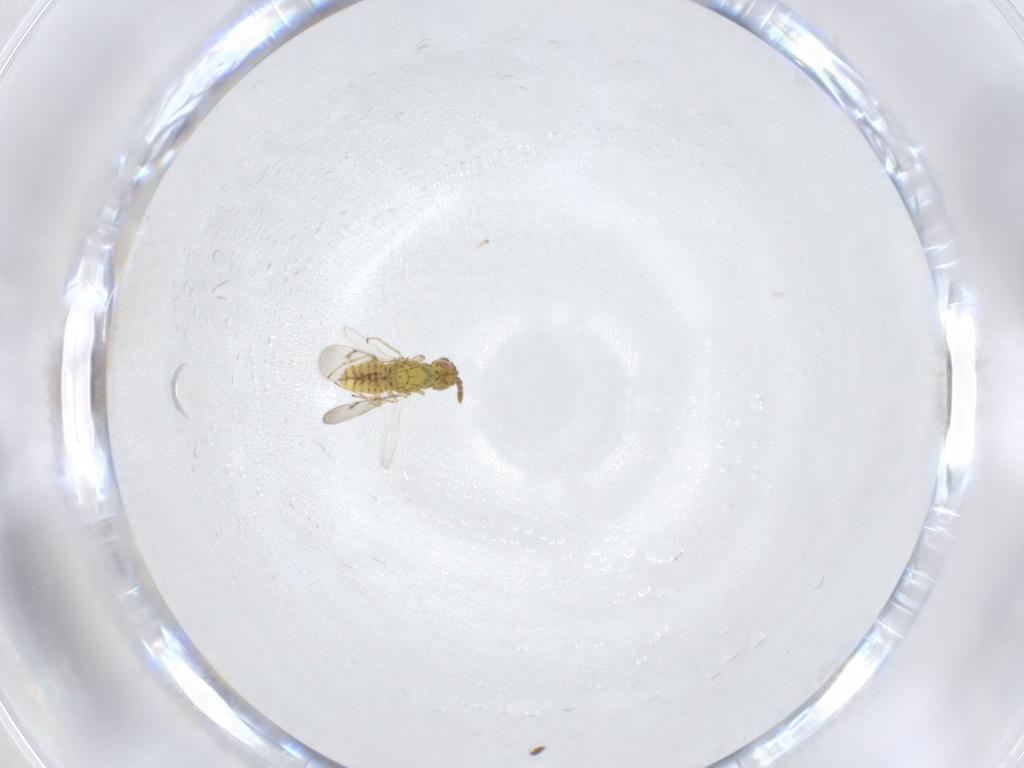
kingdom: Animalia
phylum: Arthropoda
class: Insecta
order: Hymenoptera
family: Eulophidae
